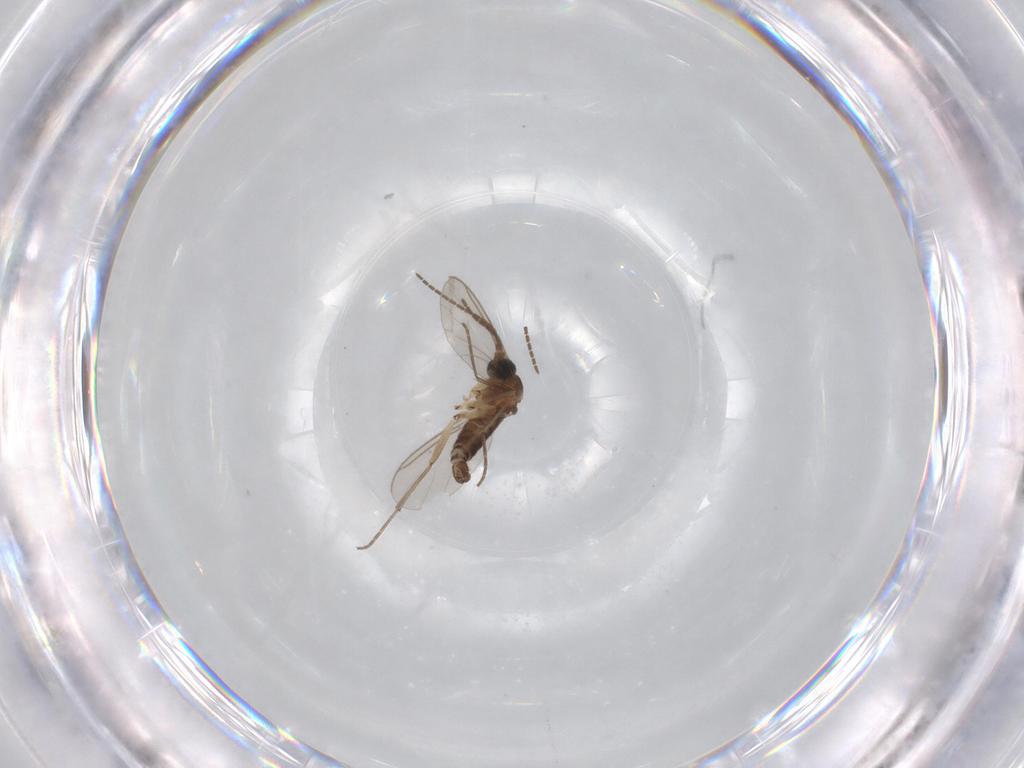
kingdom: Animalia
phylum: Arthropoda
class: Insecta
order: Diptera
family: Sciaridae
